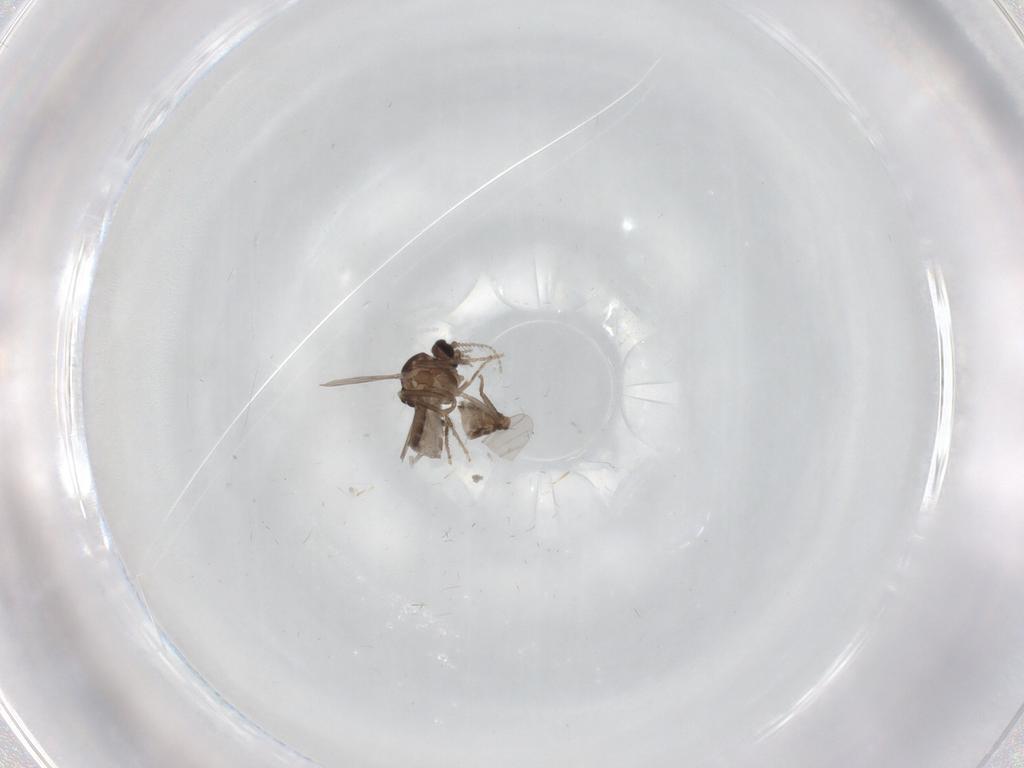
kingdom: Animalia
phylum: Arthropoda
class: Insecta
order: Diptera
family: Ceratopogonidae
